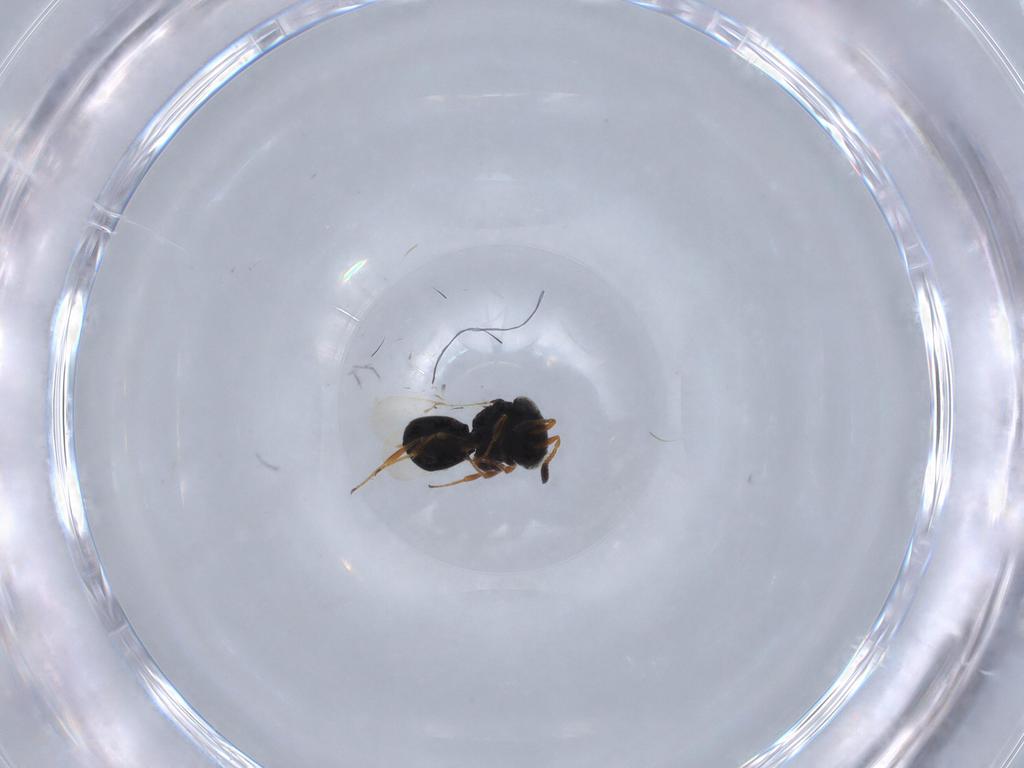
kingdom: Animalia
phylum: Arthropoda
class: Insecta
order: Hymenoptera
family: Scelionidae
